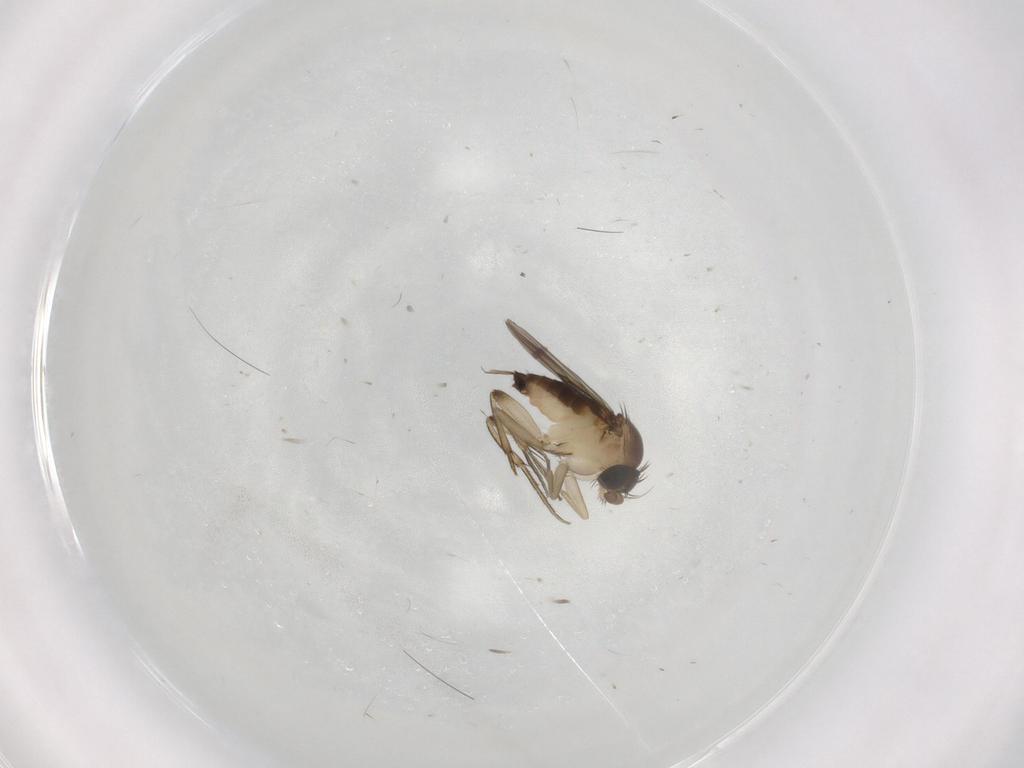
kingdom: Animalia
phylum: Arthropoda
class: Insecta
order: Diptera
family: Phoridae
